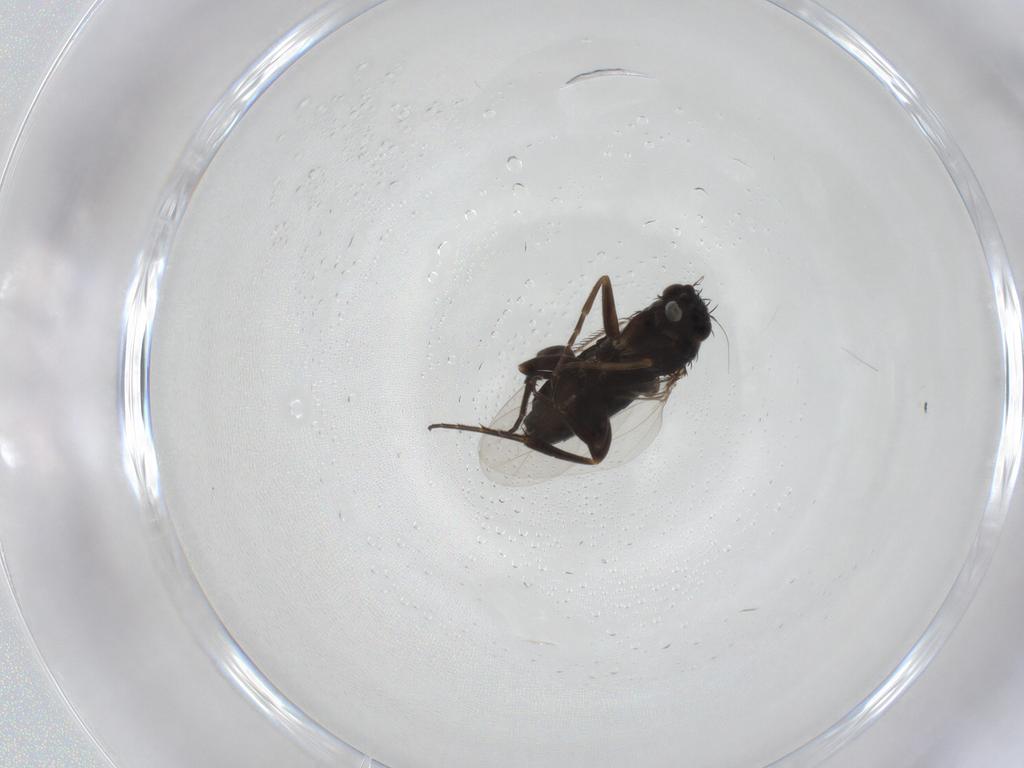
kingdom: Animalia
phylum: Arthropoda
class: Insecta
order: Diptera
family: Phoridae
